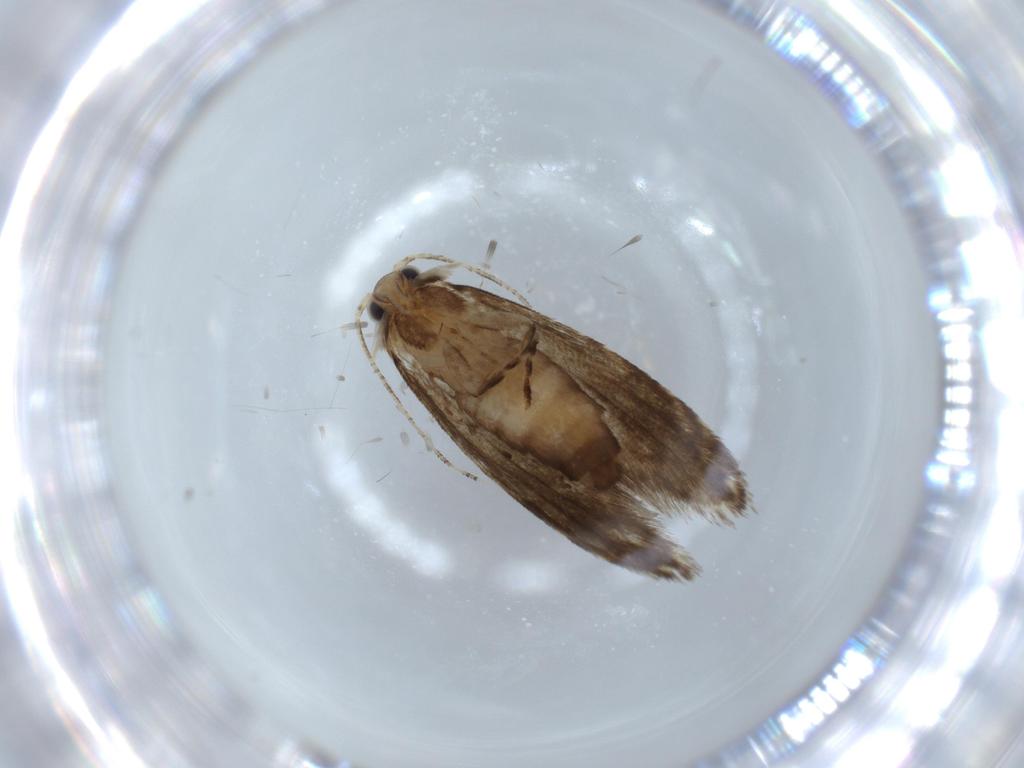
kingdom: Animalia
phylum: Arthropoda
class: Insecta
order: Lepidoptera
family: Tineidae
